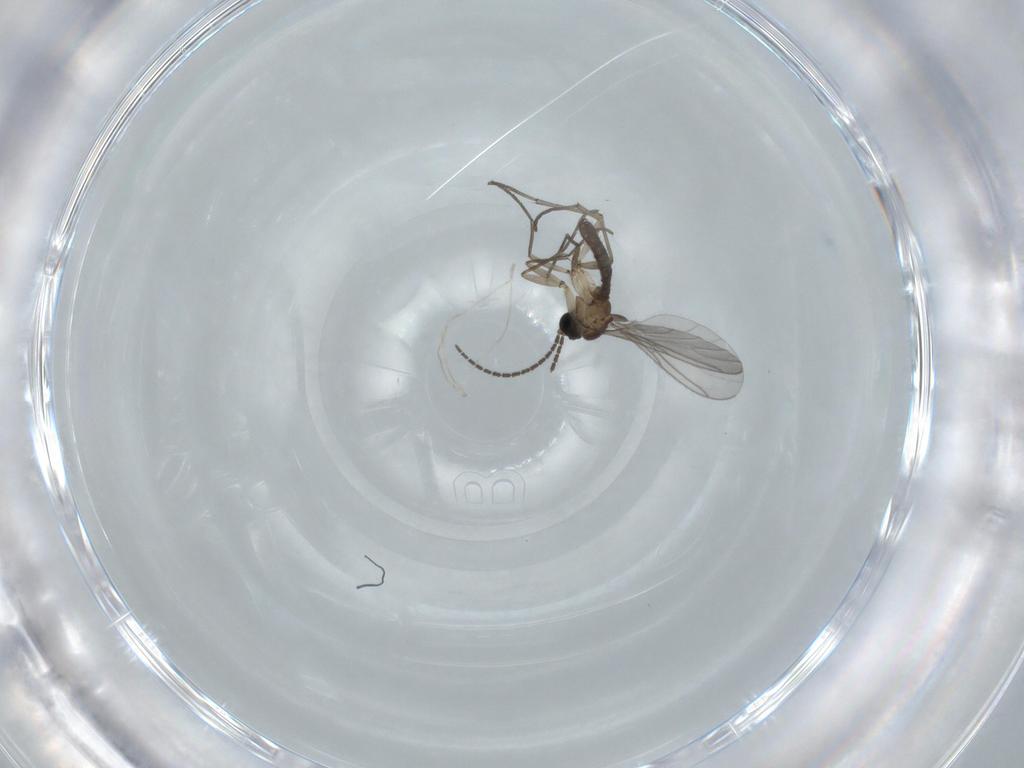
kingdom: Animalia
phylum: Arthropoda
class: Insecta
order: Diptera
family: Sciaridae
